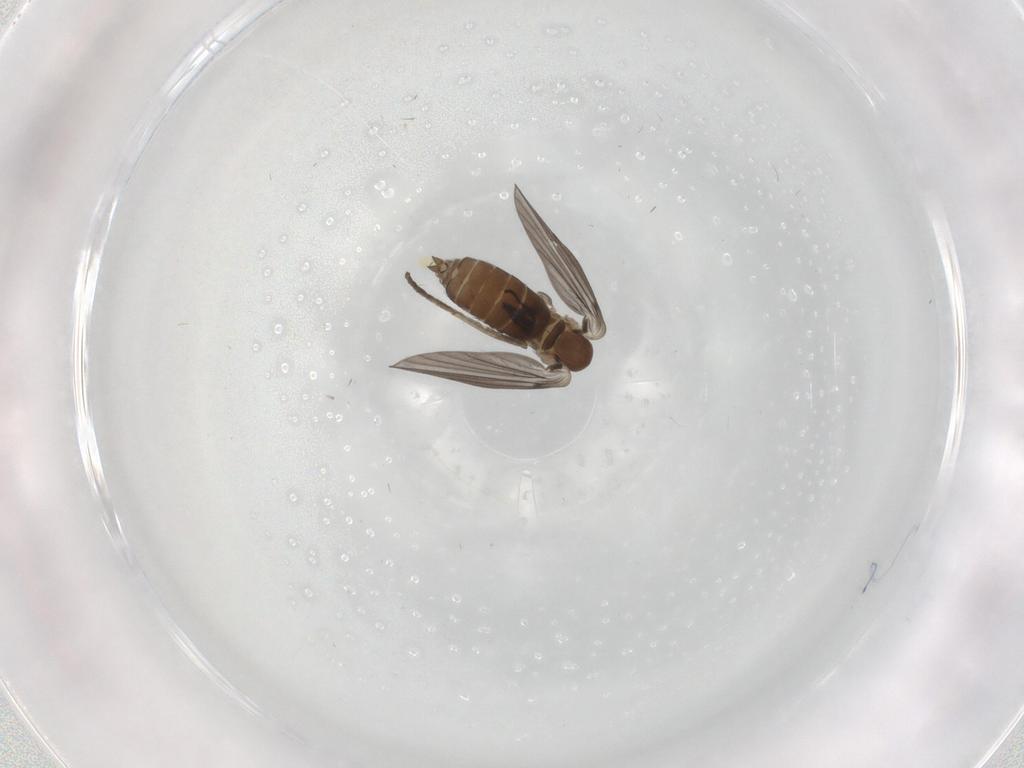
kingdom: Animalia
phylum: Arthropoda
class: Insecta
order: Diptera
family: Psychodidae
